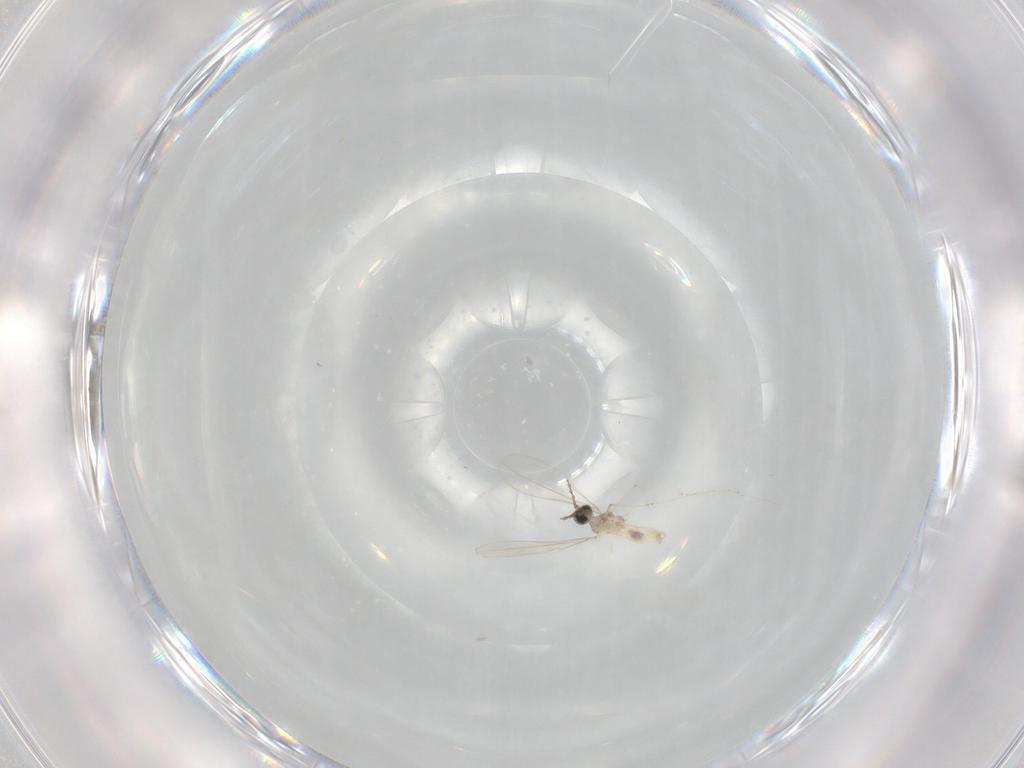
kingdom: Animalia
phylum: Arthropoda
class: Insecta
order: Diptera
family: Cecidomyiidae
